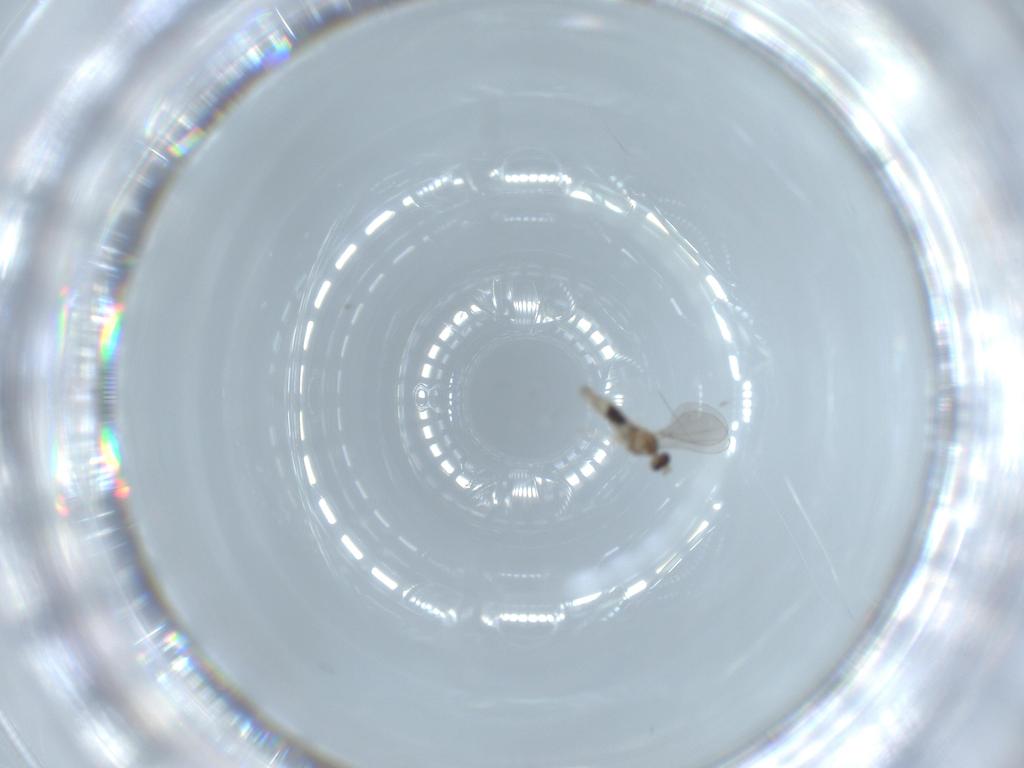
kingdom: Animalia
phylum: Arthropoda
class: Insecta
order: Diptera
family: Cecidomyiidae
